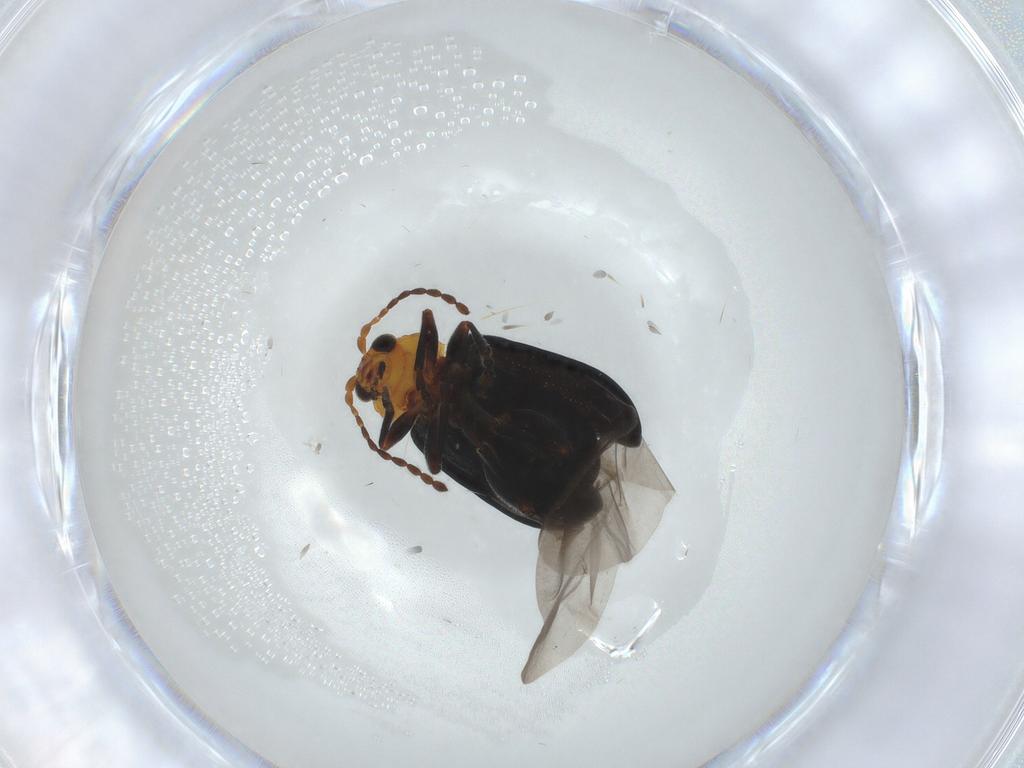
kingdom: Animalia
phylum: Arthropoda
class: Insecta
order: Coleoptera
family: Chrysomelidae
